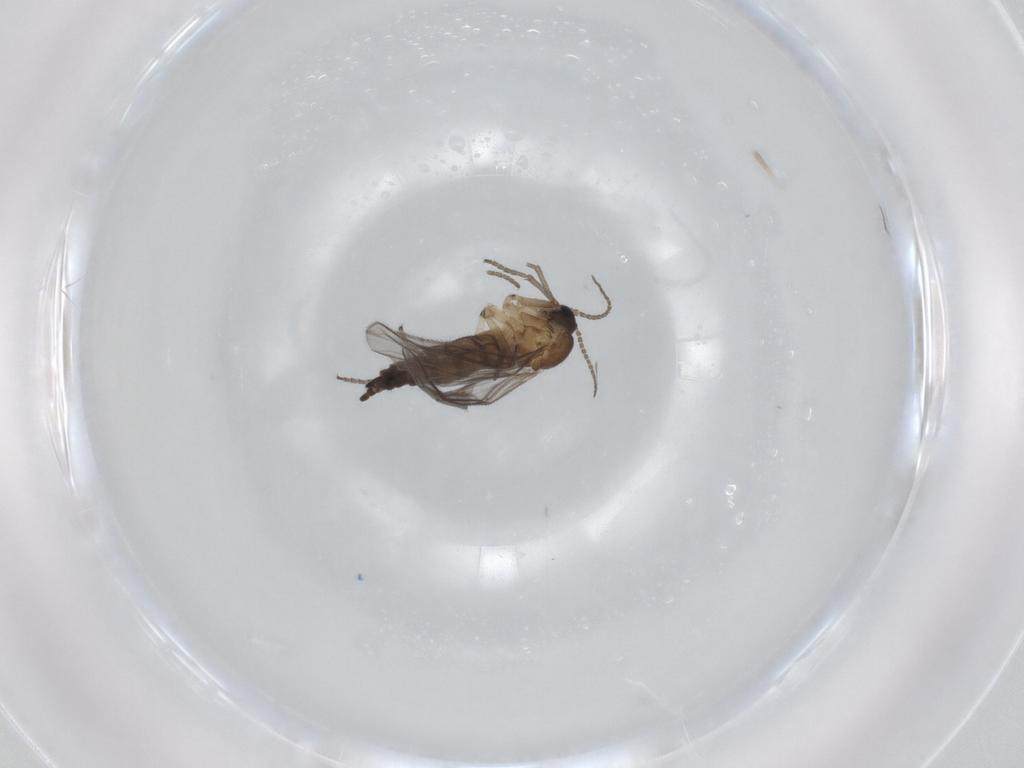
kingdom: Animalia
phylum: Arthropoda
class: Insecta
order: Diptera
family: Sciaridae
